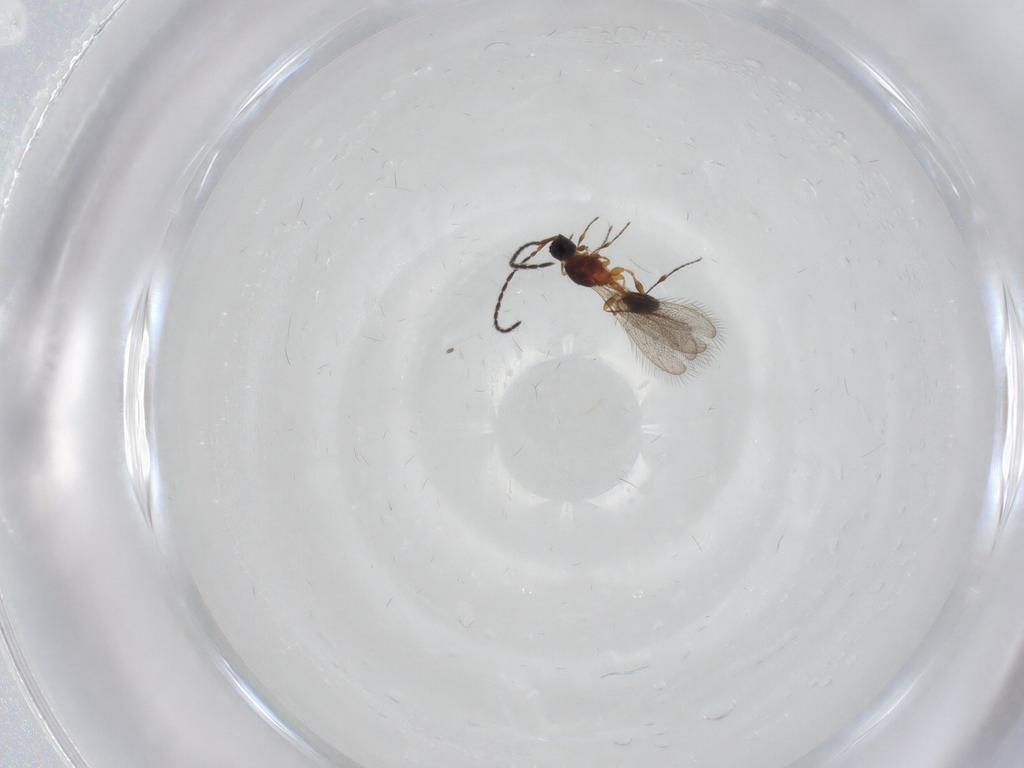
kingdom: Animalia
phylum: Arthropoda
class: Insecta
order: Hymenoptera
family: Diapriidae
